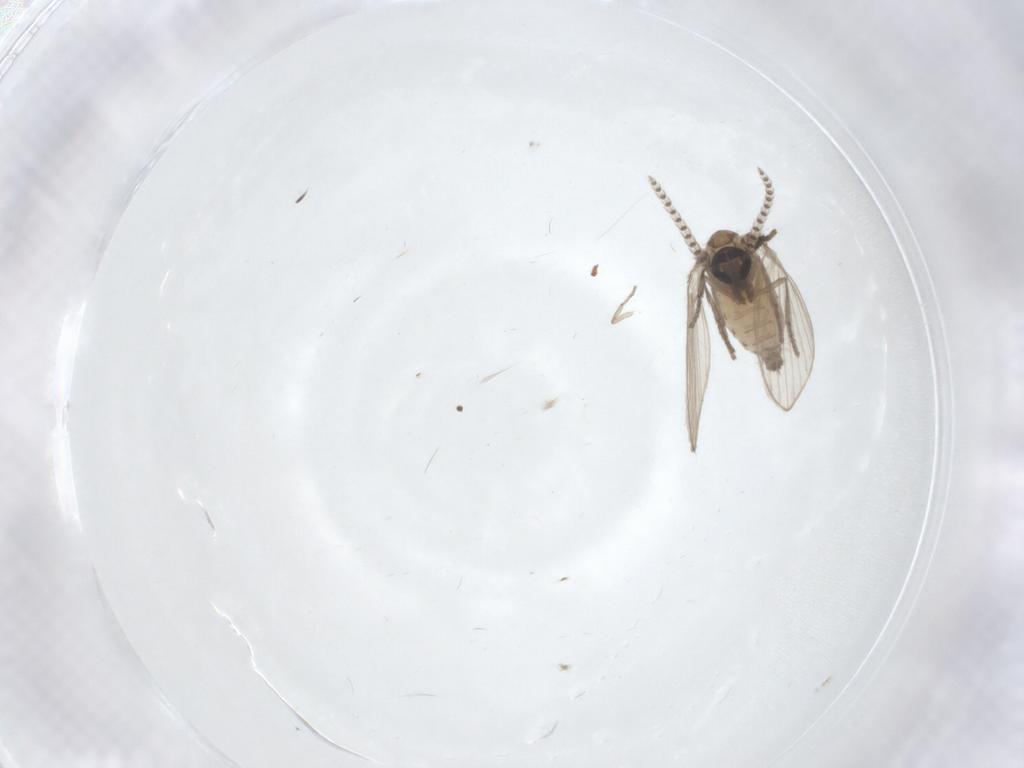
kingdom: Animalia
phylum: Arthropoda
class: Insecta
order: Diptera
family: Psychodidae
